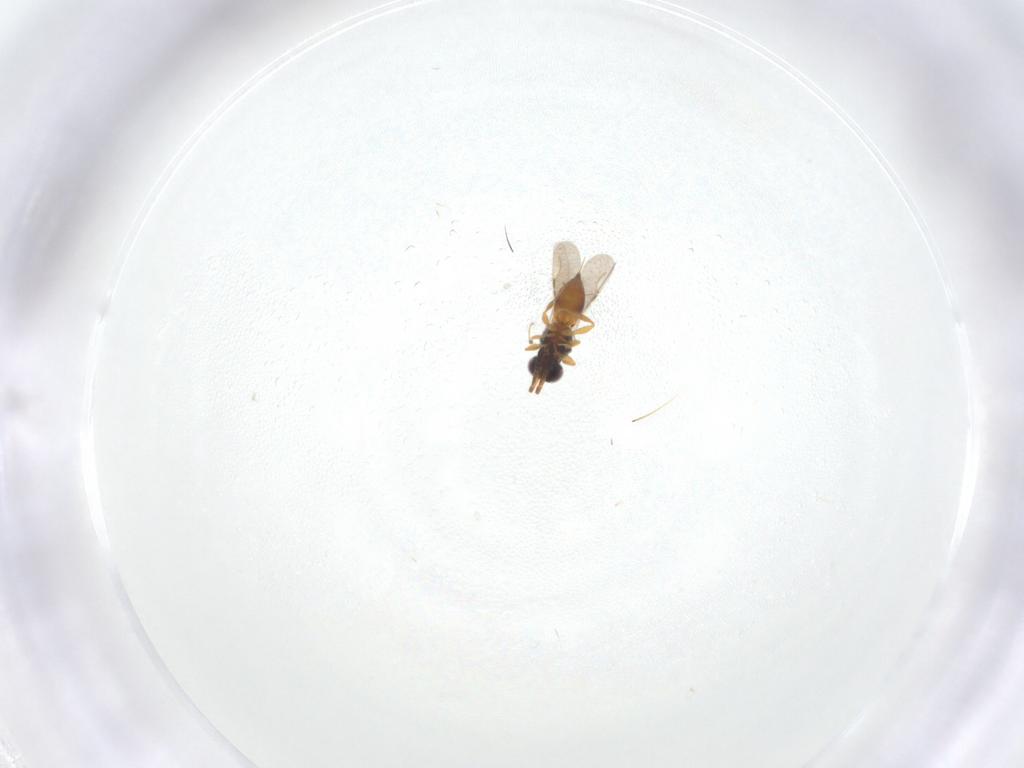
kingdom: Animalia
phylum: Arthropoda
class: Insecta
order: Hymenoptera
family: Ceraphronidae
